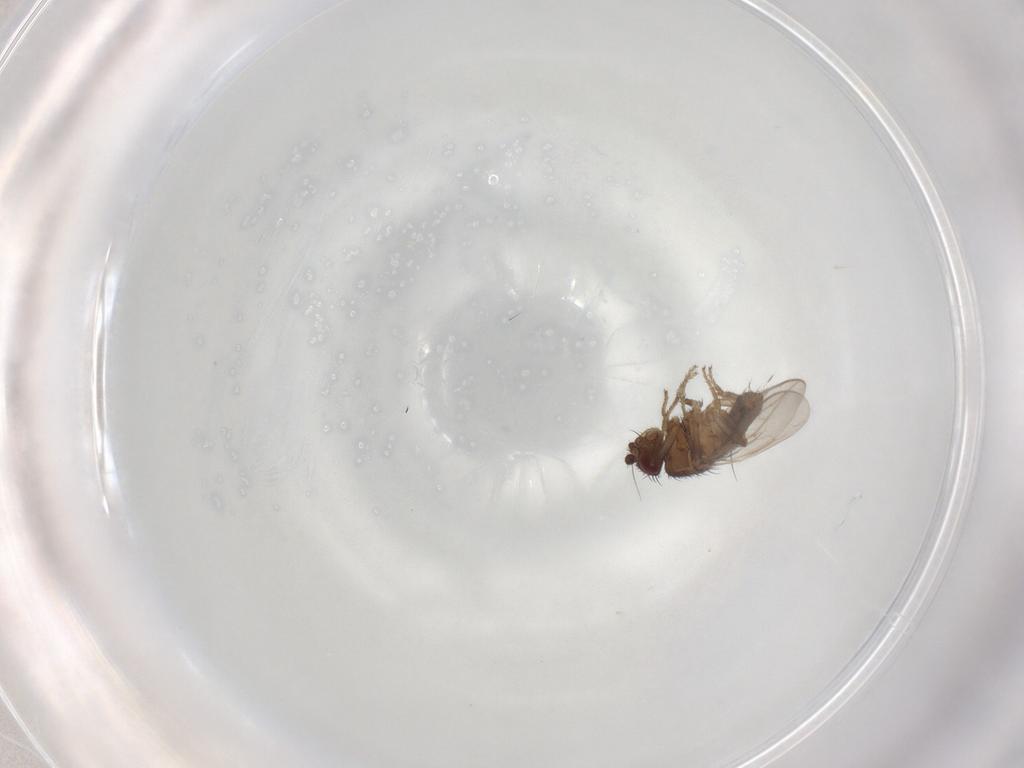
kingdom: Animalia
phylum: Arthropoda
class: Insecta
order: Diptera
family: Sphaeroceridae
